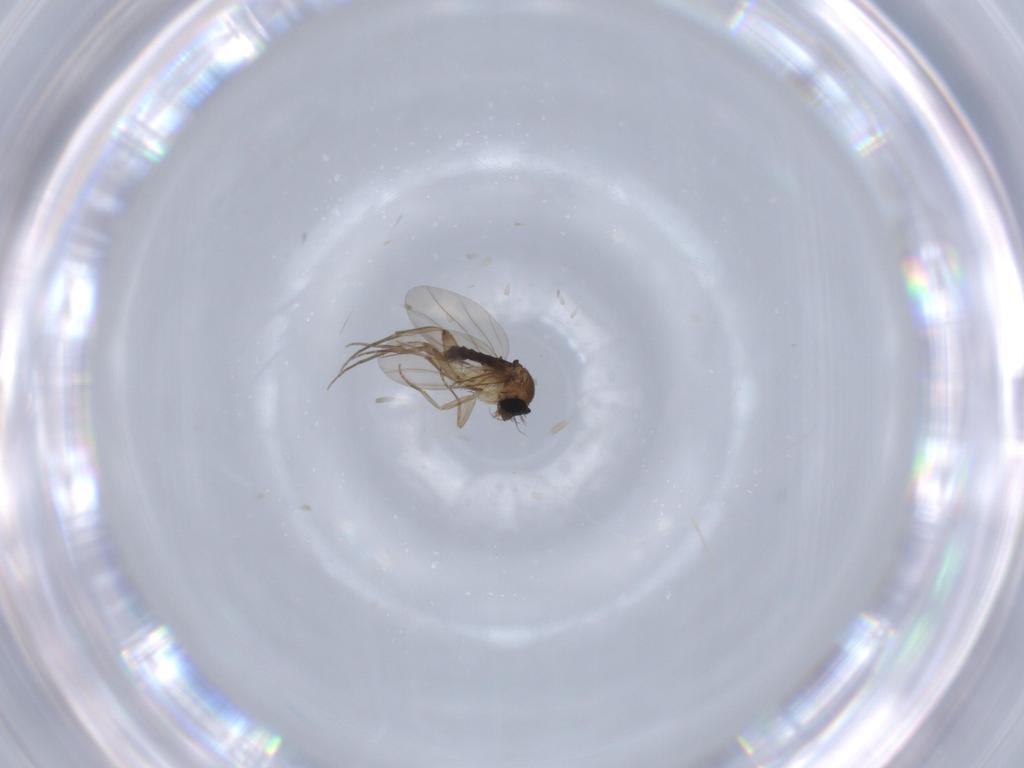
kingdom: Animalia
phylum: Arthropoda
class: Insecta
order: Diptera
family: Phoridae
